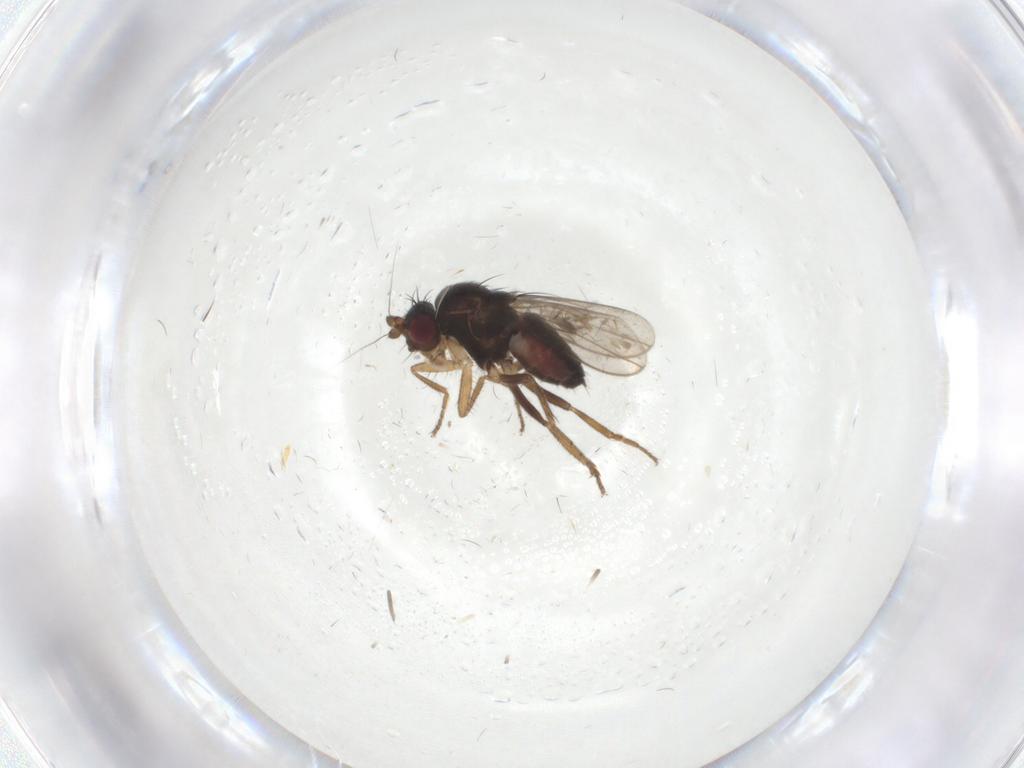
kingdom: Animalia
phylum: Arthropoda
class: Insecta
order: Diptera
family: Sphaeroceridae
